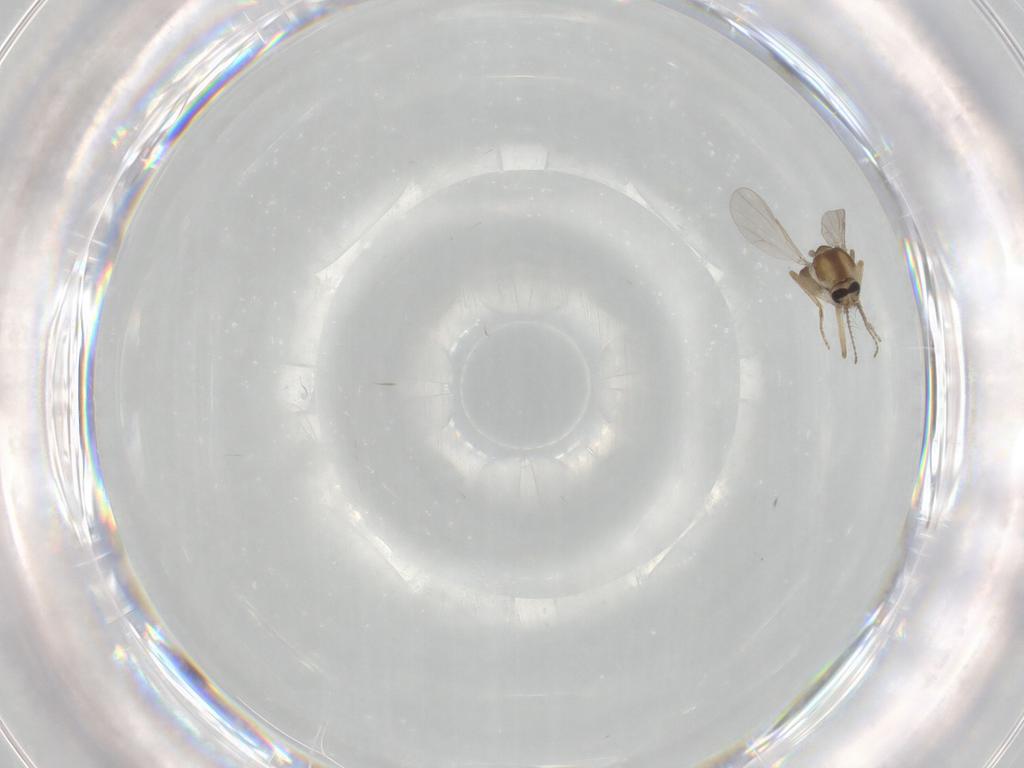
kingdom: Animalia
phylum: Arthropoda
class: Insecta
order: Diptera
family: Ceratopogonidae
